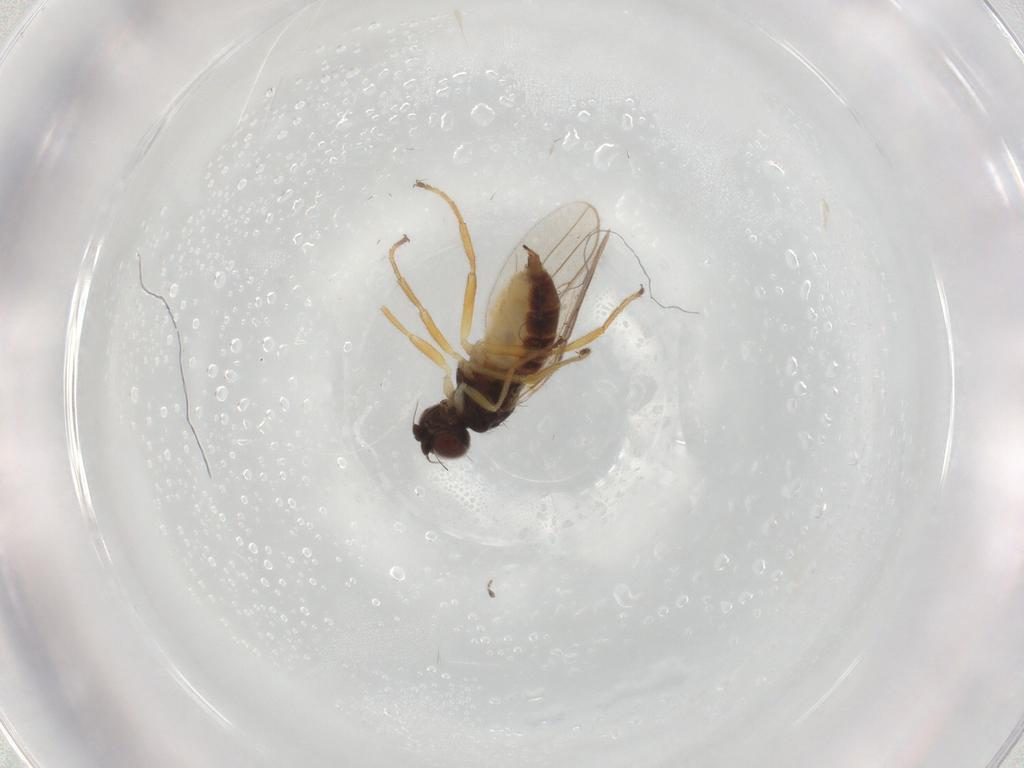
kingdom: Animalia
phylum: Arthropoda
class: Insecta
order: Diptera
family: Chloropidae
